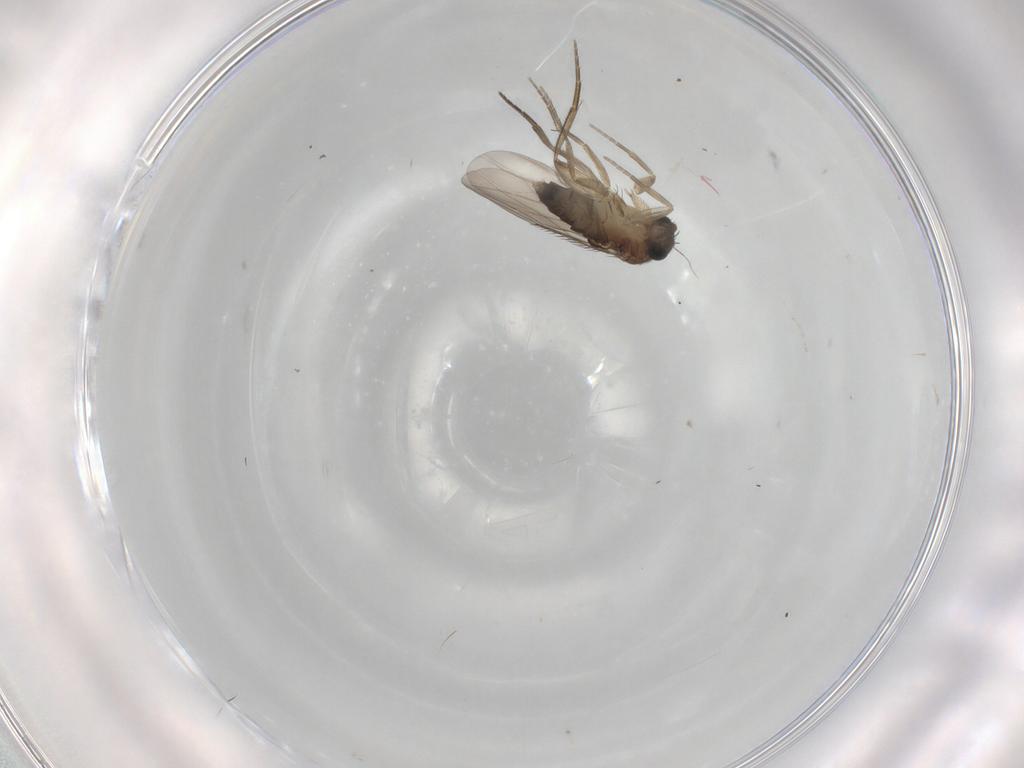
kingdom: Animalia
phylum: Arthropoda
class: Insecta
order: Diptera
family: Phoridae
